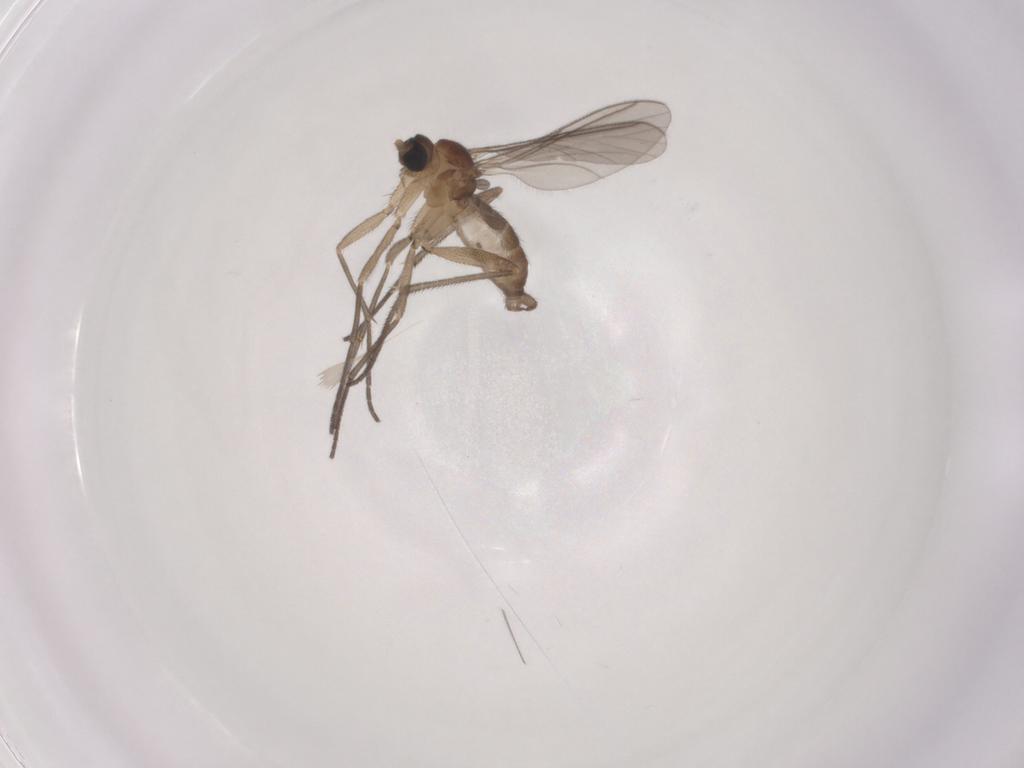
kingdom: Animalia
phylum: Arthropoda
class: Insecta
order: Diptera
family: Sciaridae
